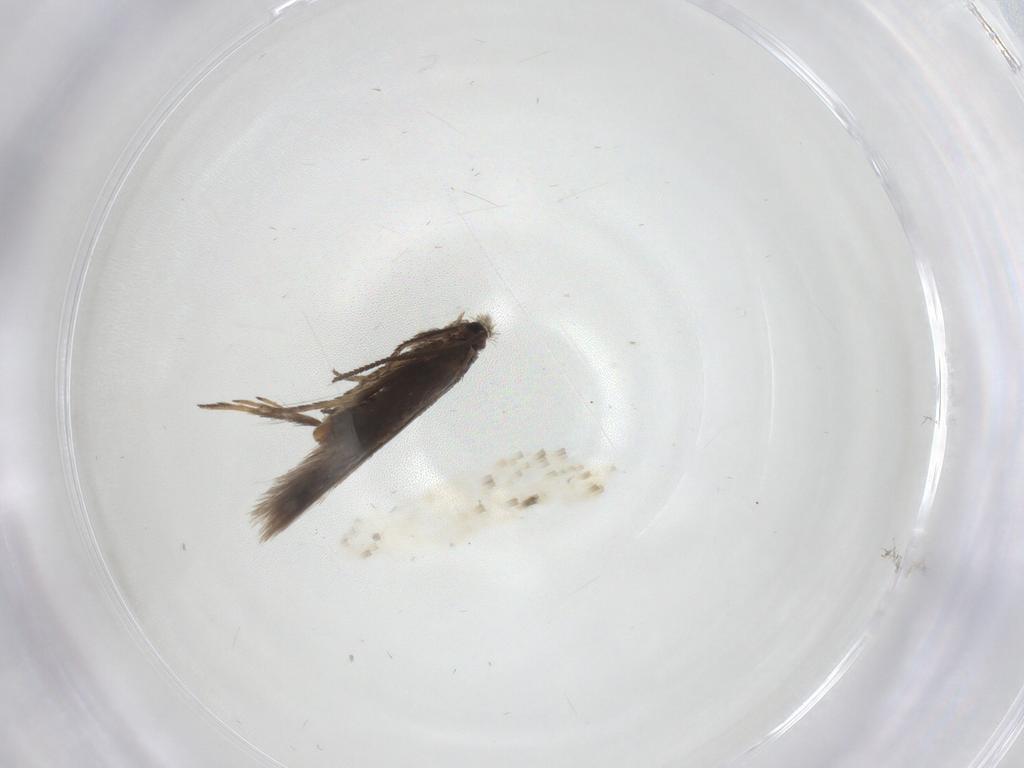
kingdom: Animalia
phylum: Arthropoda
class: Insecta
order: Lepidoptera
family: Nepticulidae
